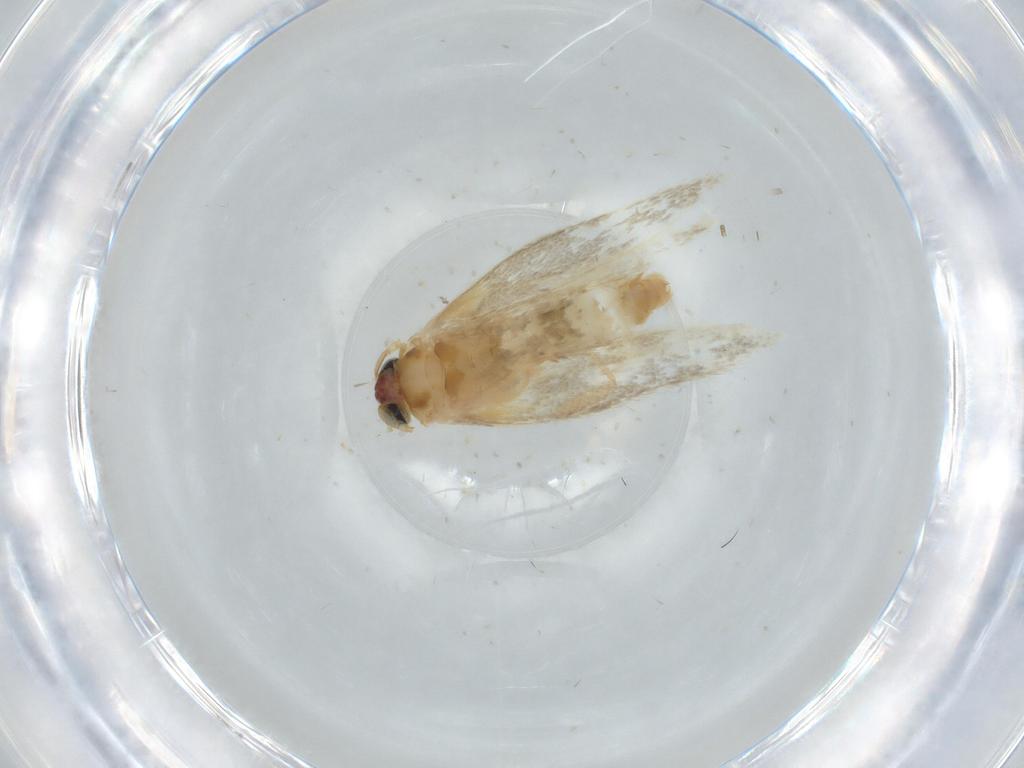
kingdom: Animalia
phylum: Arthropoda
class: Insecta
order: Lepidoptera
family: Nepticulidae
